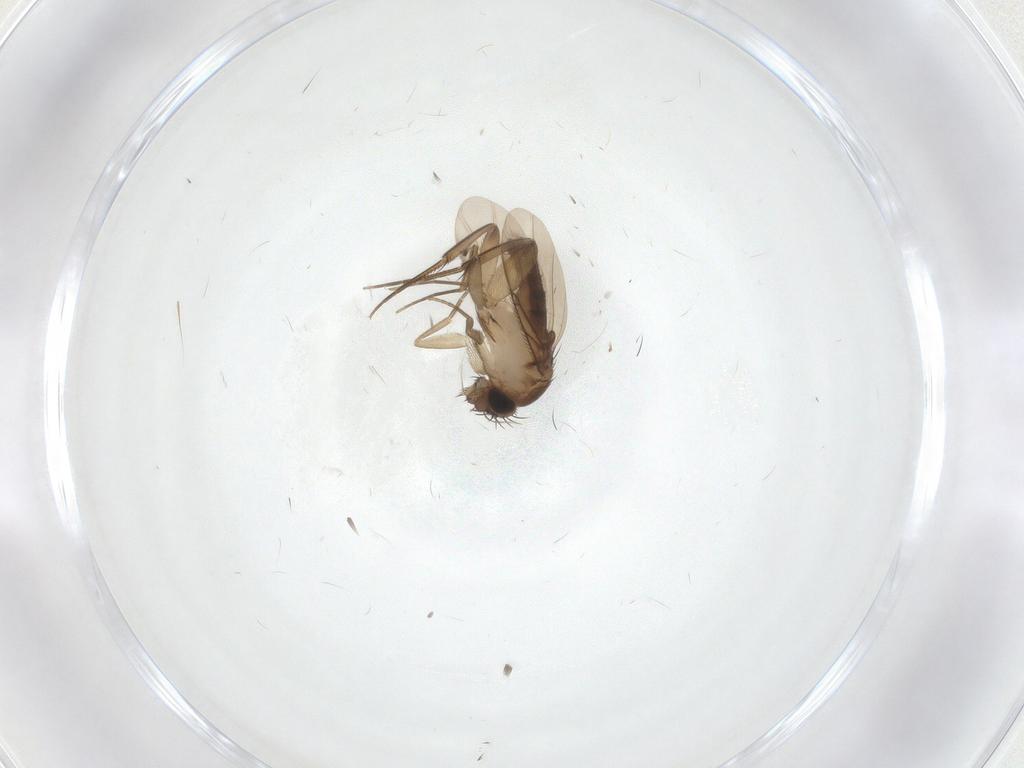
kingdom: Animalia
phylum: Arthropoda
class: Insecta
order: Diptera
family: Phoridae
